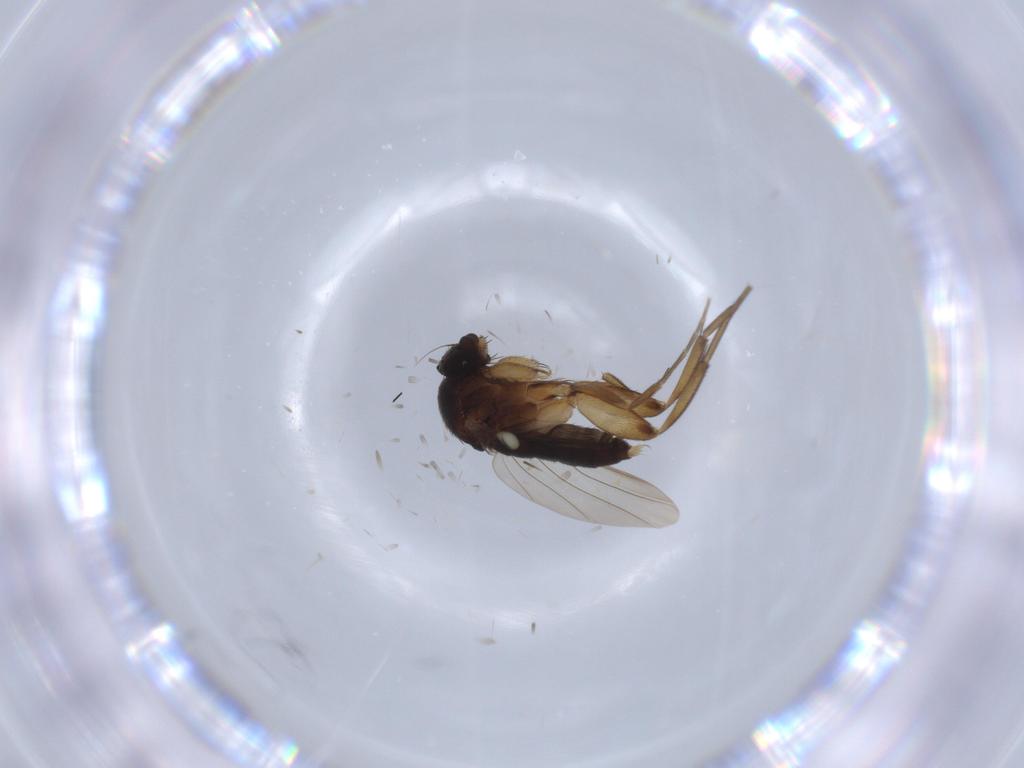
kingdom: Animalia
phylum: Arthropoda
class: Insecta
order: Diptera
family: Phoridae
